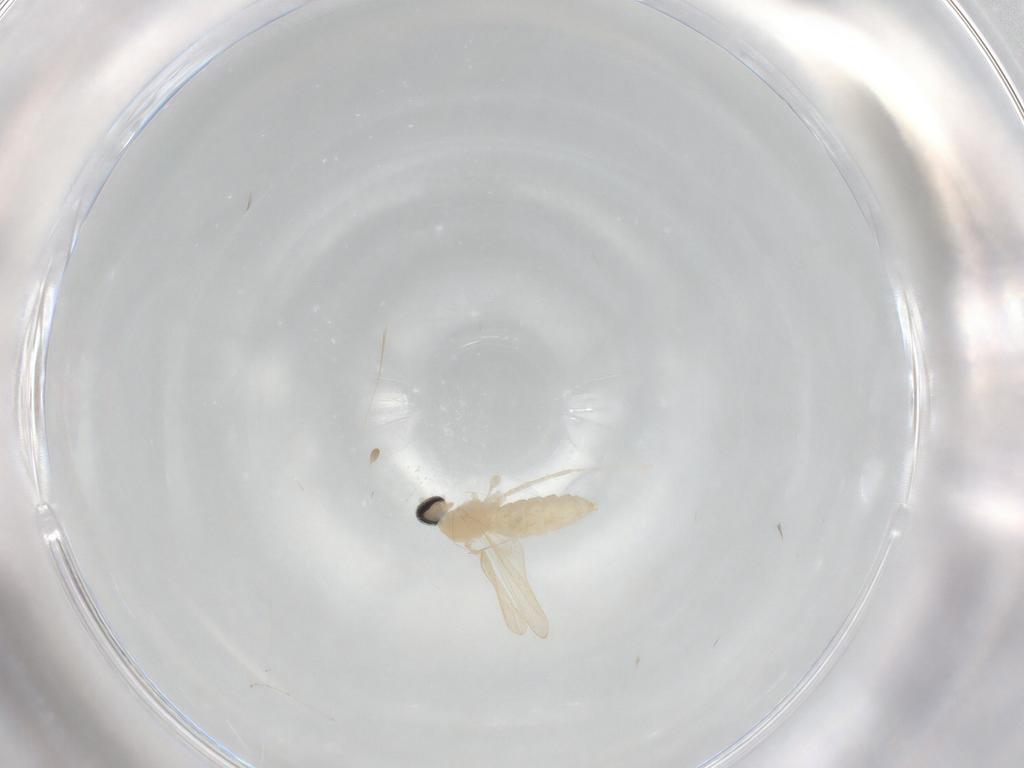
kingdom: Animalia
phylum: Arthropoda
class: Insecta
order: Diptera
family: Cecidomyiidae
